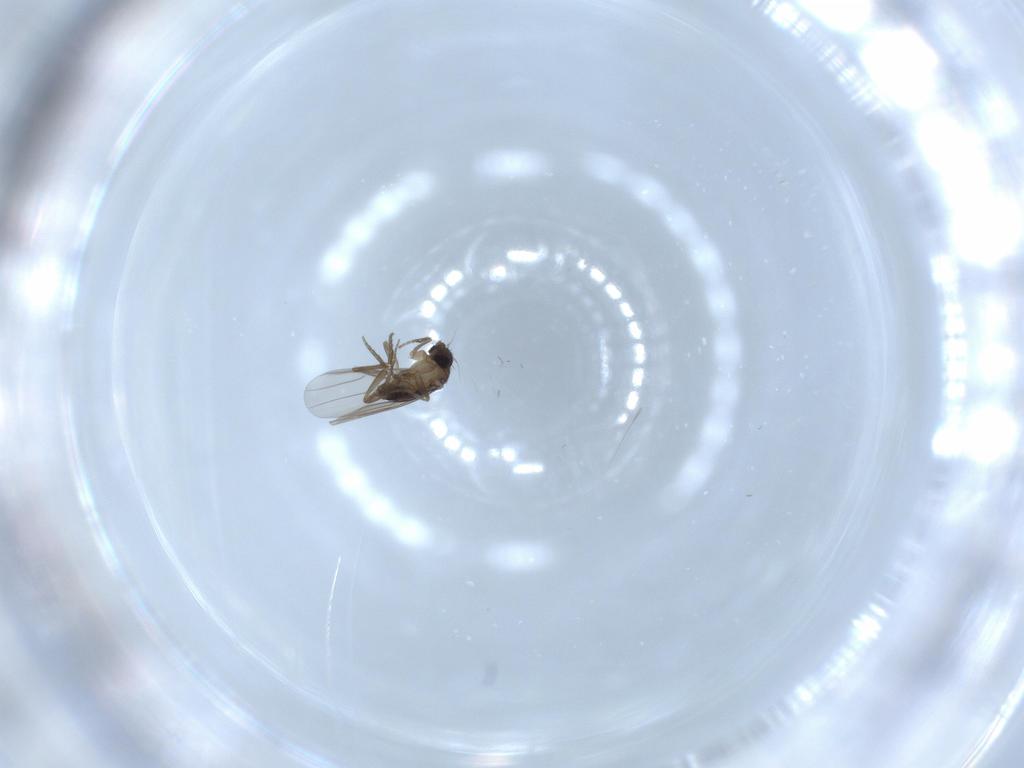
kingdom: Animalia
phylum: Arthropoda
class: Insecta
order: Diptera
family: Phoridae
